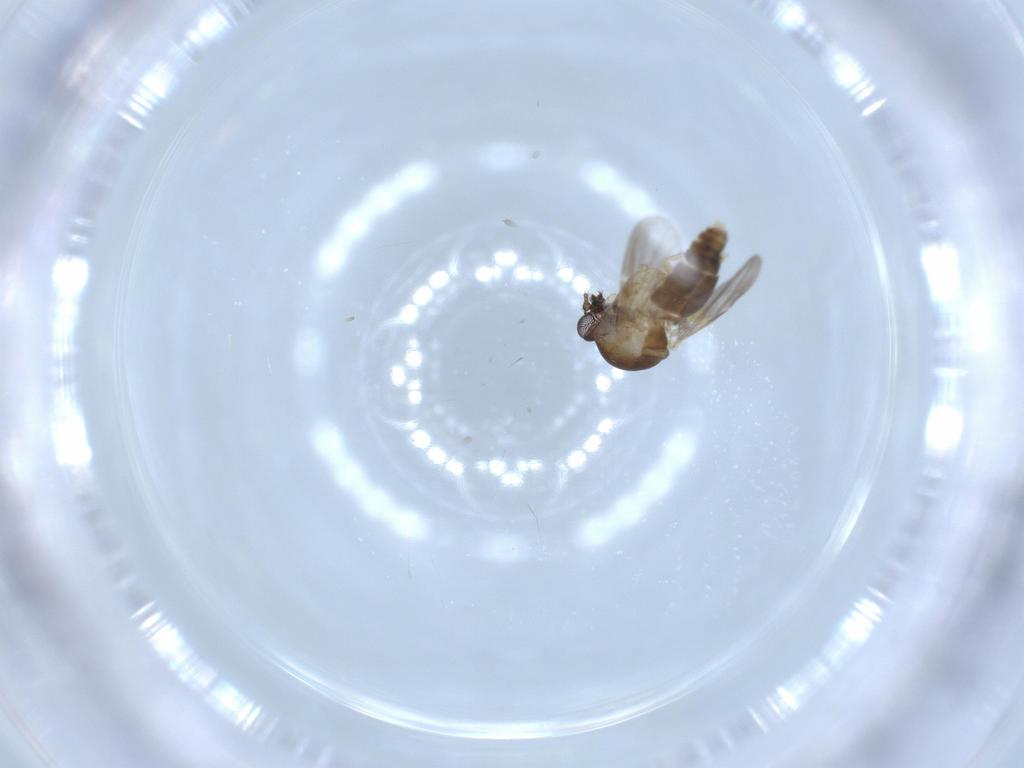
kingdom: Animalia
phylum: Arthropoda
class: Insecta
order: Diptera
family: Ceratopogonidae
